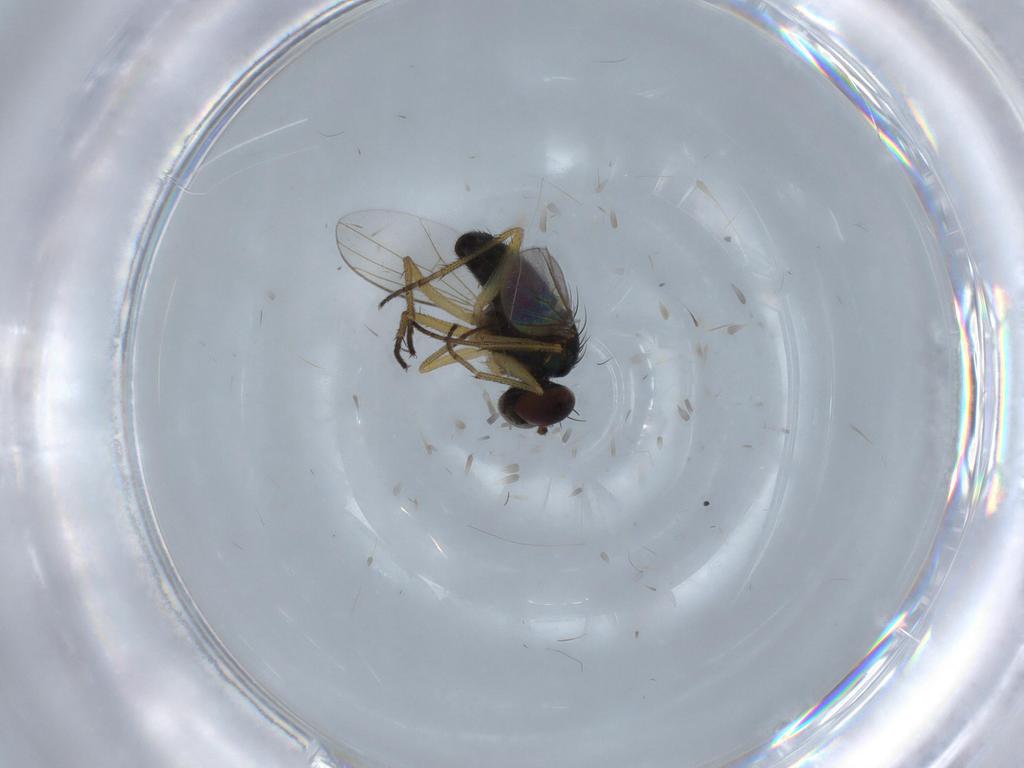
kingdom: Animalia
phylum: Arthropoda
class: Insecta
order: Diptera
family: Dolichopodidae
